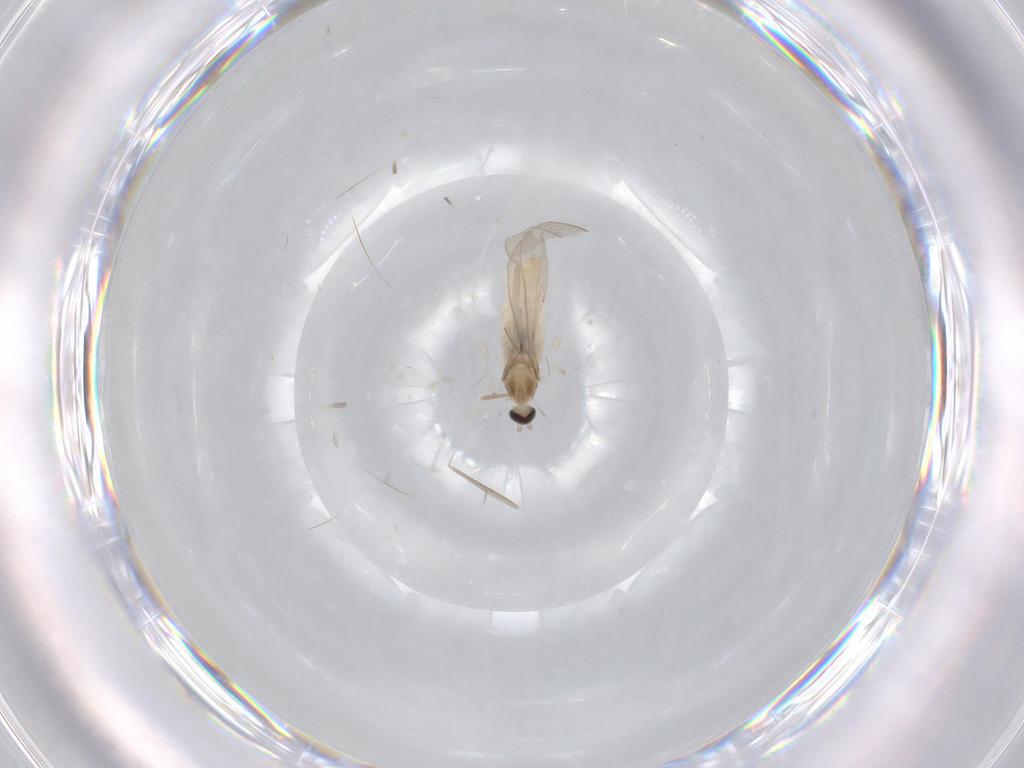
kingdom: Animalia
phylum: Arthropoda
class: Insecta
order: Diptera
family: Cecidomyiidae
